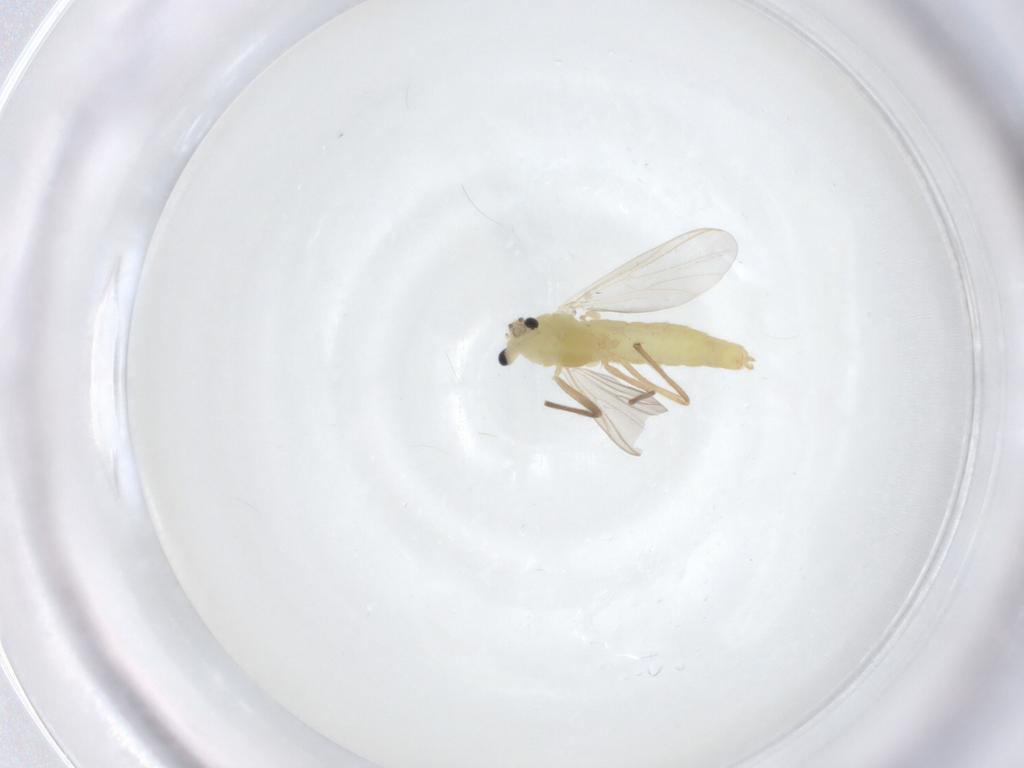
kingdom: Animalia
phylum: Arthropoda
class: Insecta
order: Diptera
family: Chironomidae
